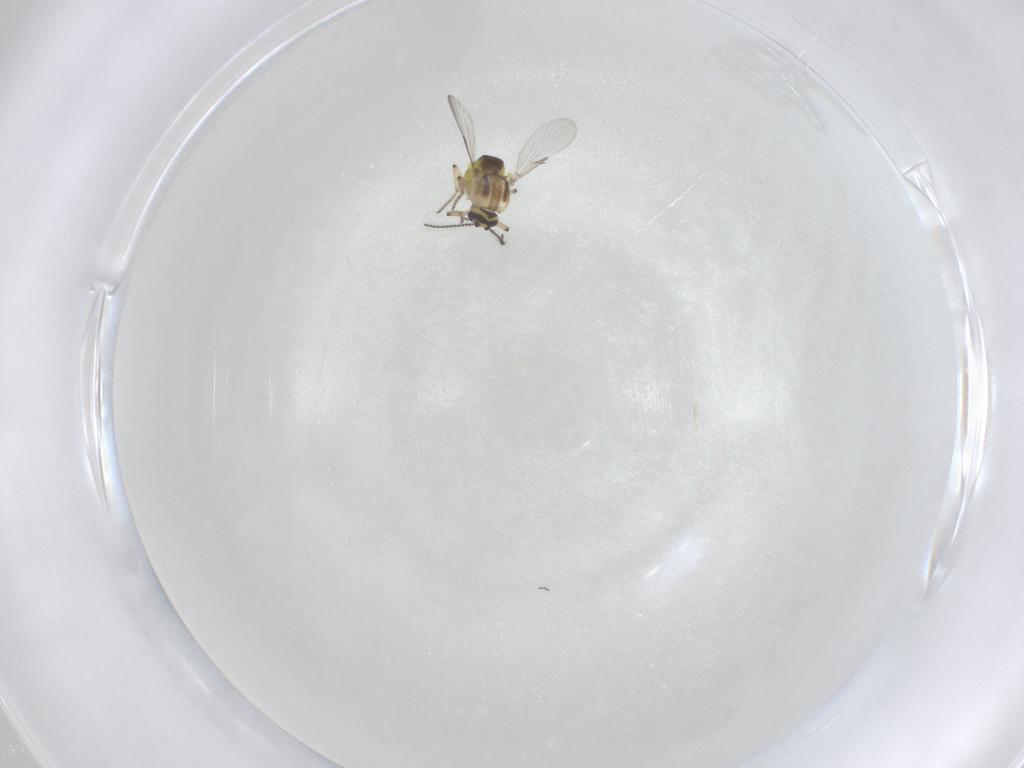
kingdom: Animalia
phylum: Arthropoda
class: Insecta
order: Diptera
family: Ceratopogonidae
